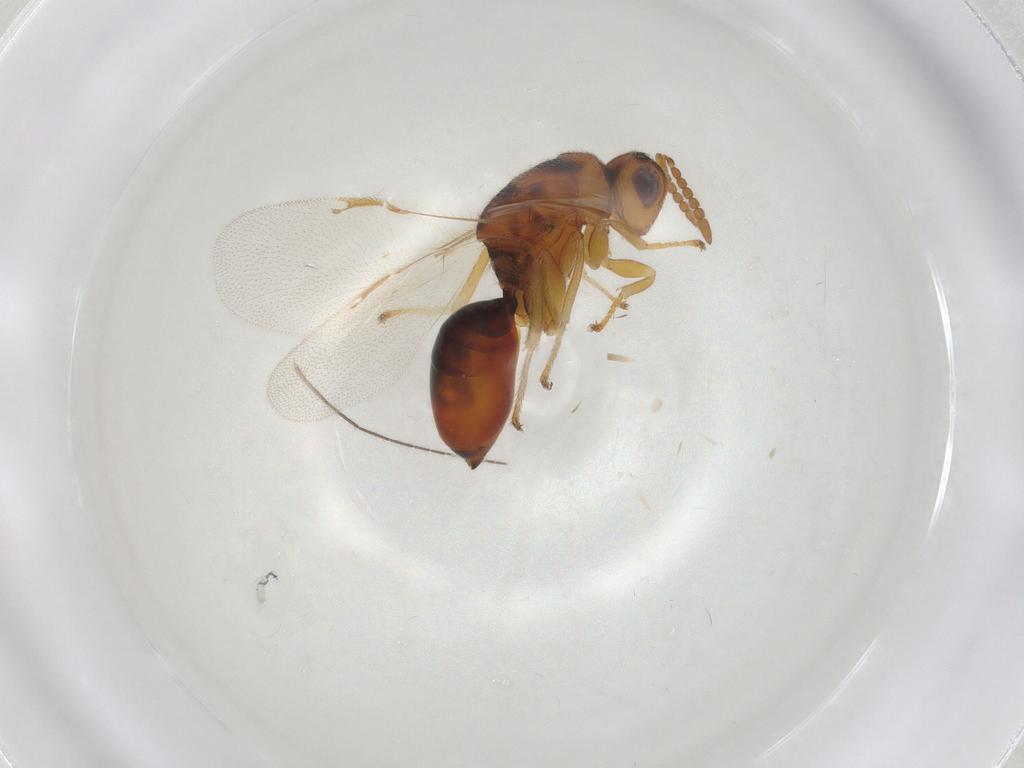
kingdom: Animalia
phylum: Arthropoda
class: Insecta
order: Hymenoptera
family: Eurytomidae
